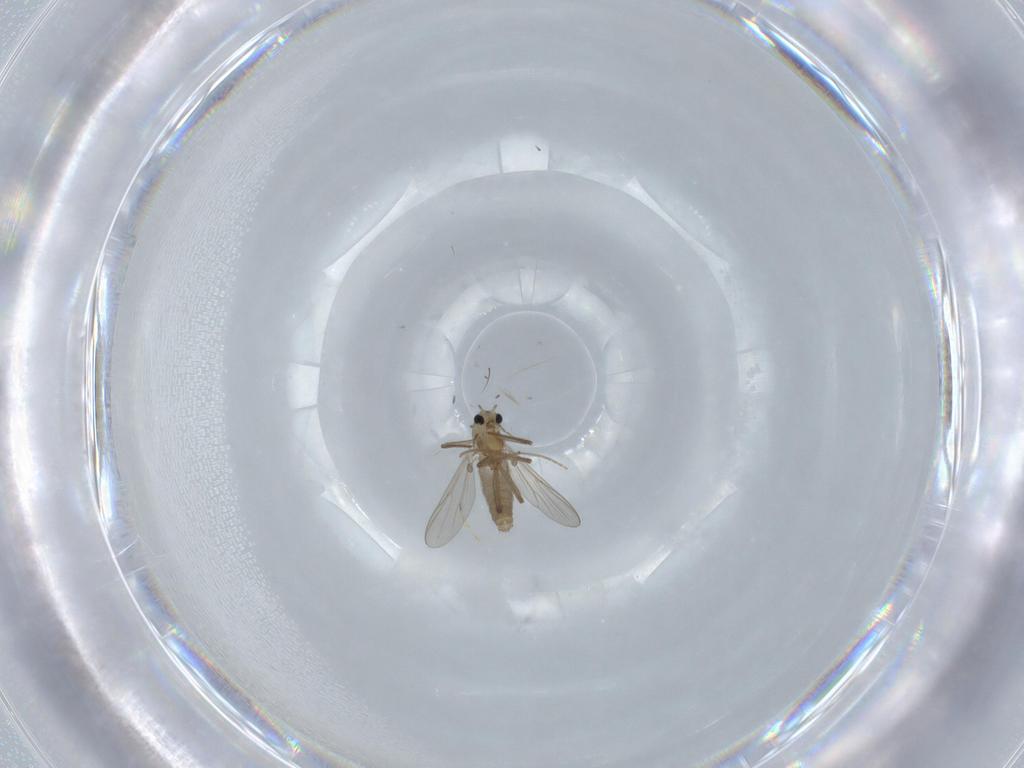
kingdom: Animalia
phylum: Arthropoda
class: Insecta
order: Diptera
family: Chironomidae
